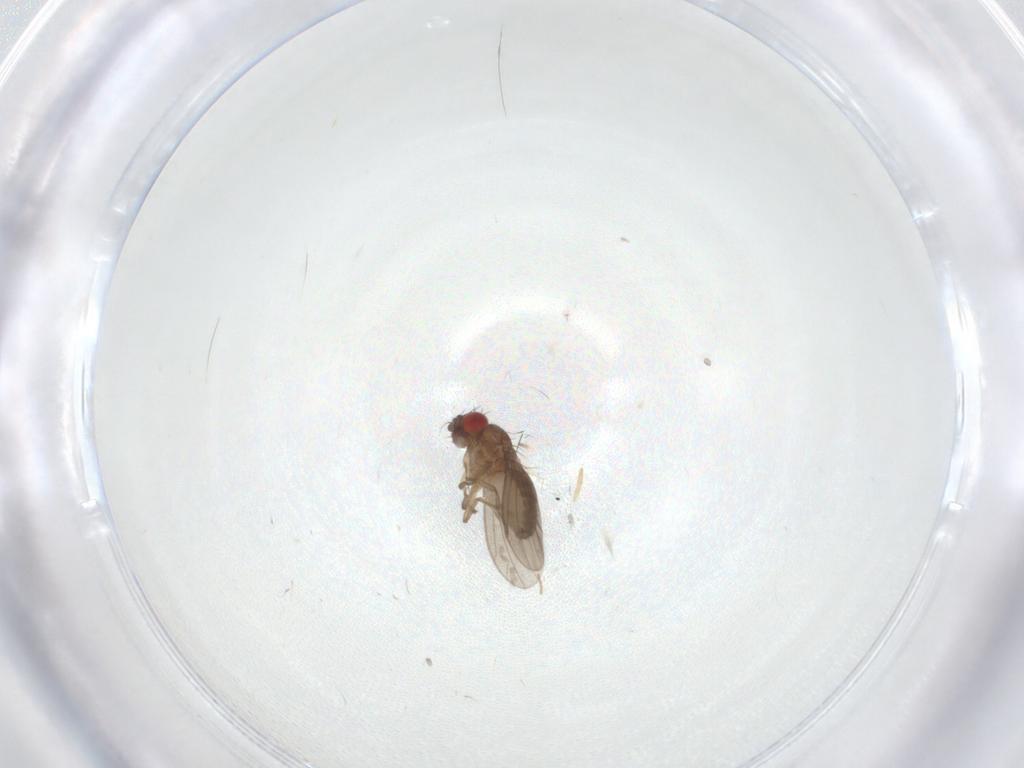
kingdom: Animalia
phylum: Arthropoda
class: Insecta
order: Diptera
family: Drosophilidae
